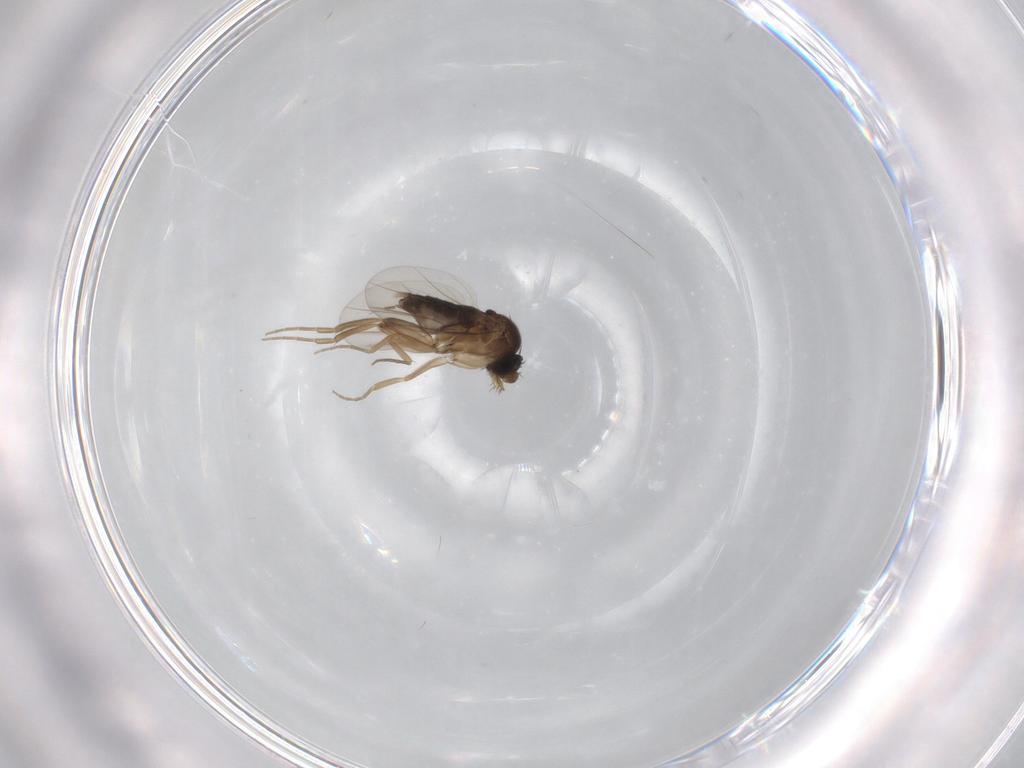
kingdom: Animalia
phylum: Arthropoda
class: Insecta
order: Diptera
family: Phoridae
